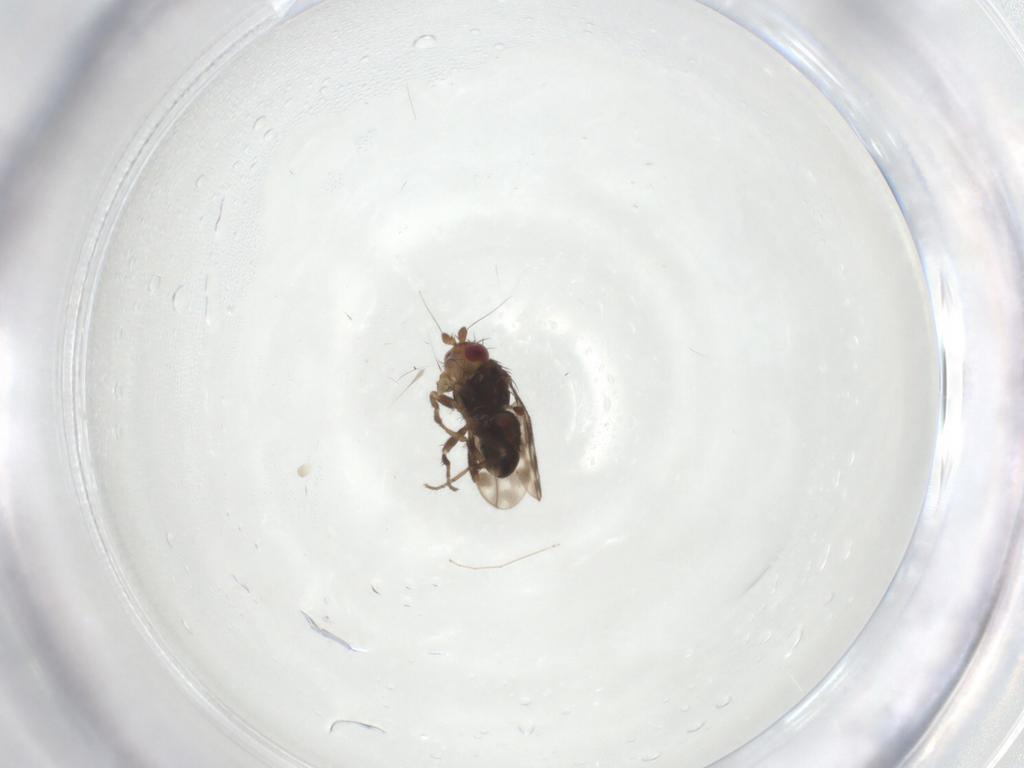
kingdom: Animalia
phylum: Arthropoda
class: Insecta
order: Diptera
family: Sphaeroceridae
